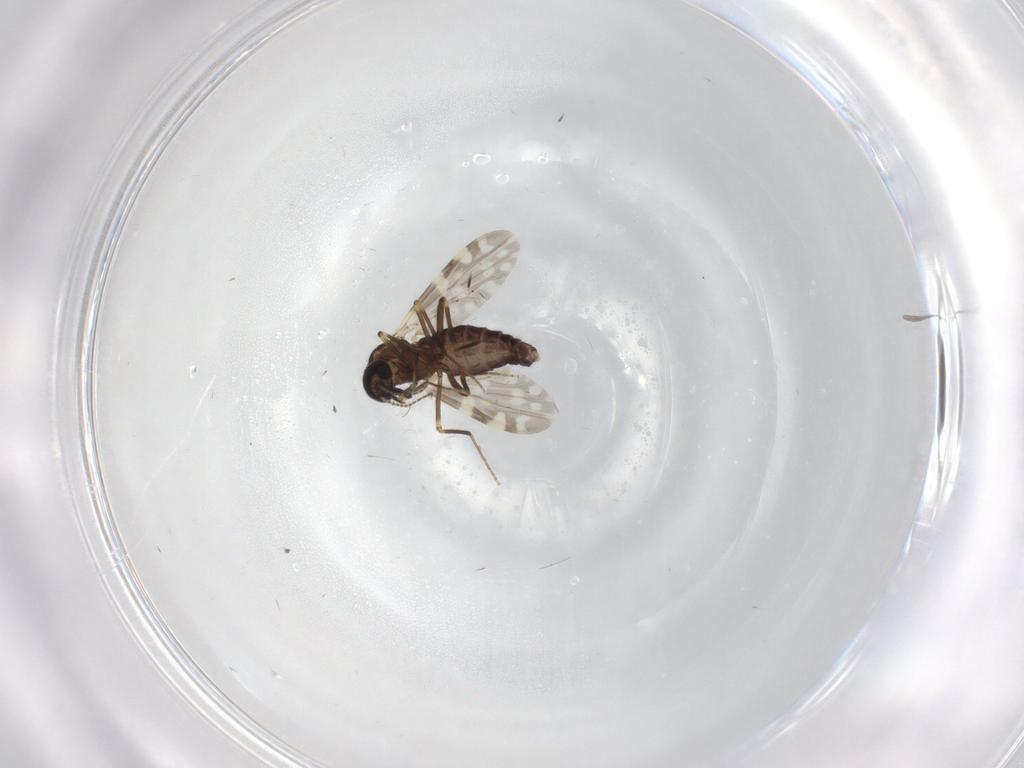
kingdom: Animalia
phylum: Arthropoda
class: Insecta
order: Diptera
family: Ceratopogonidae
